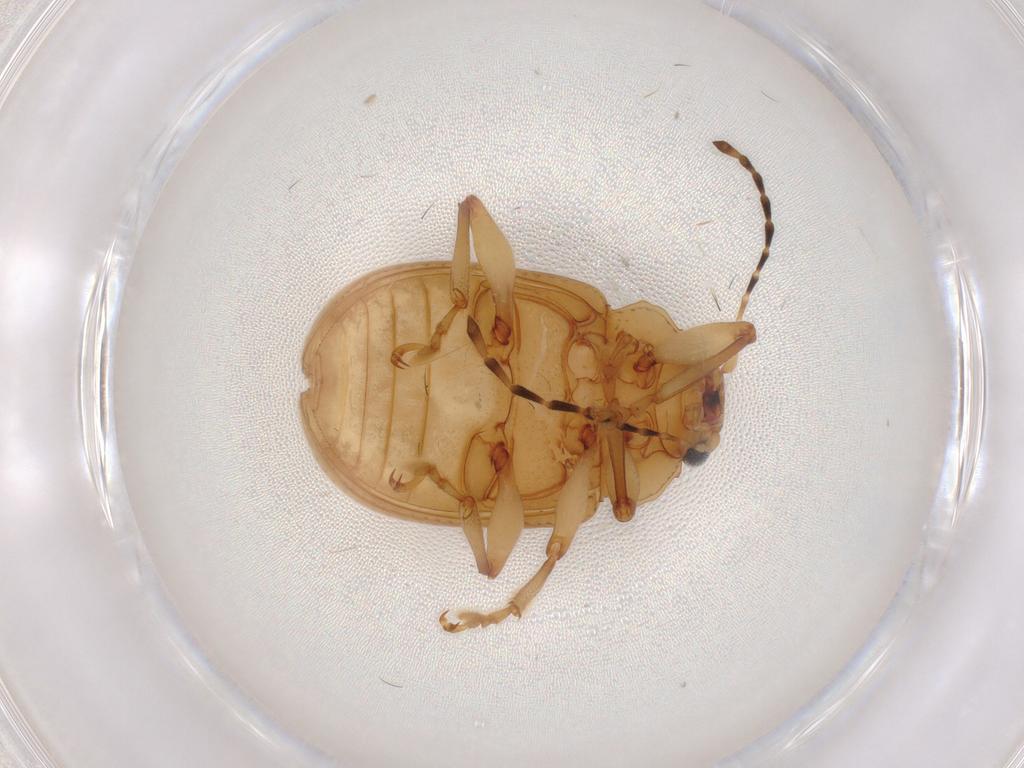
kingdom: Animalia
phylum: Arthropoda
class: Insecta
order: Coleoptera
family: Chrysomelidae
